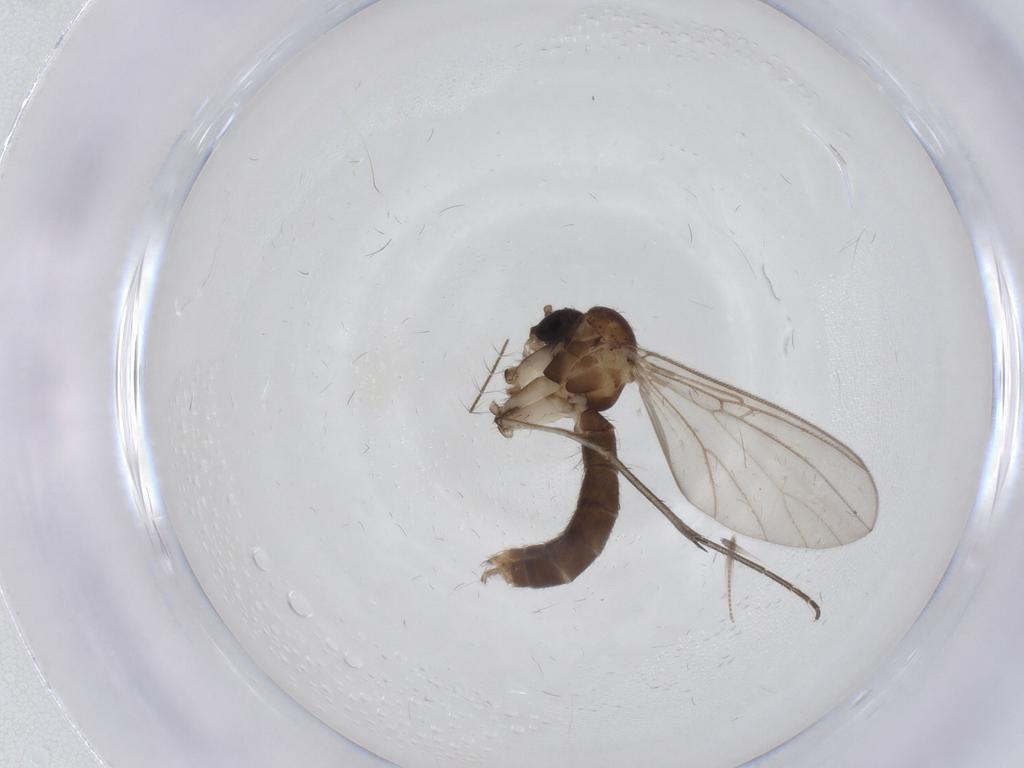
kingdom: Animalia
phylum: Arthropoda
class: Insecta
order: Diptera
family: Mycetophilidae
